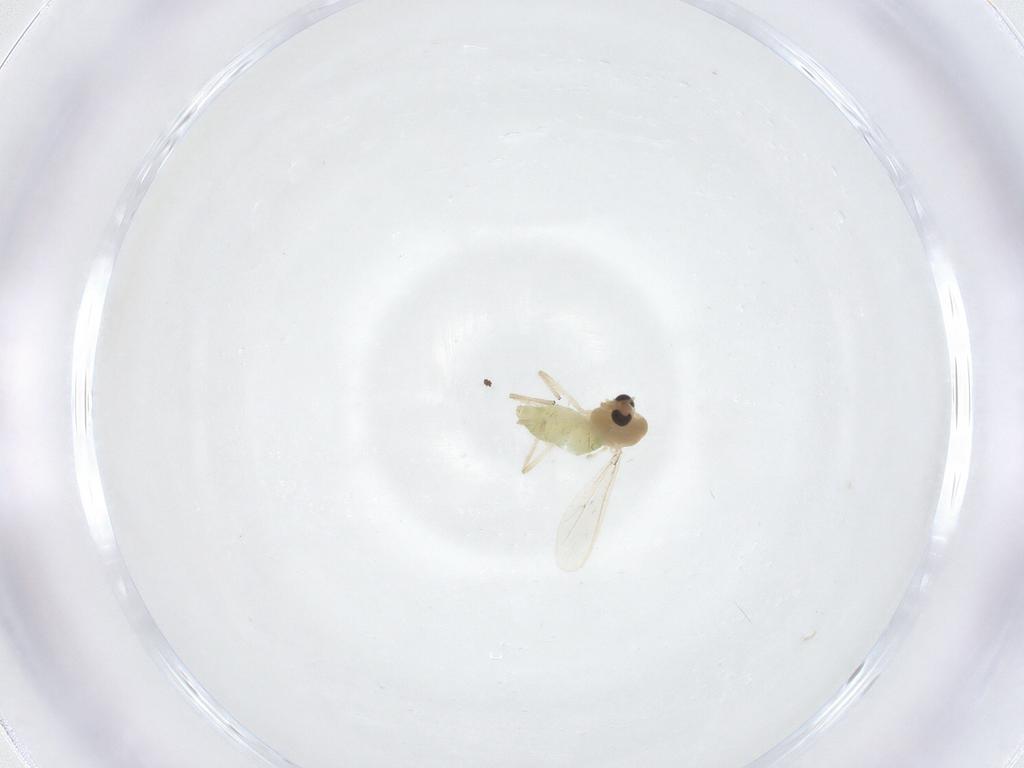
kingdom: Animalia
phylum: Arthropoda
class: Insecta
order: Diptera
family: Chironomidae
